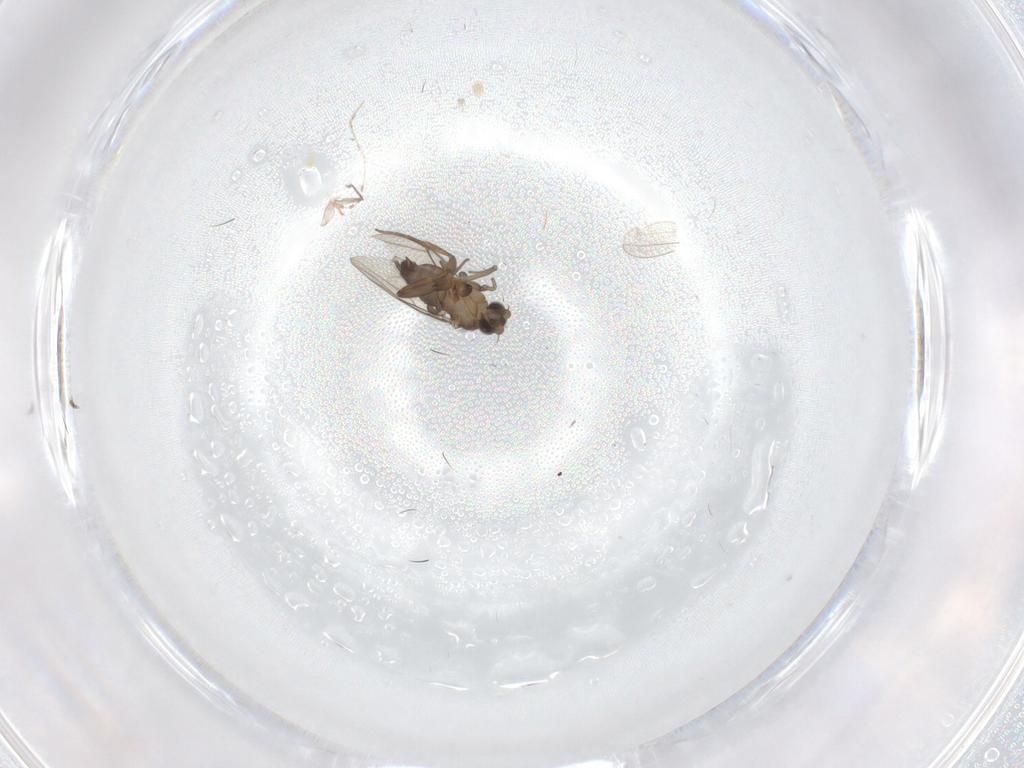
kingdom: Animalia
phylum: Arthropoda
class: Insecta
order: Diptera
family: Phoridae
